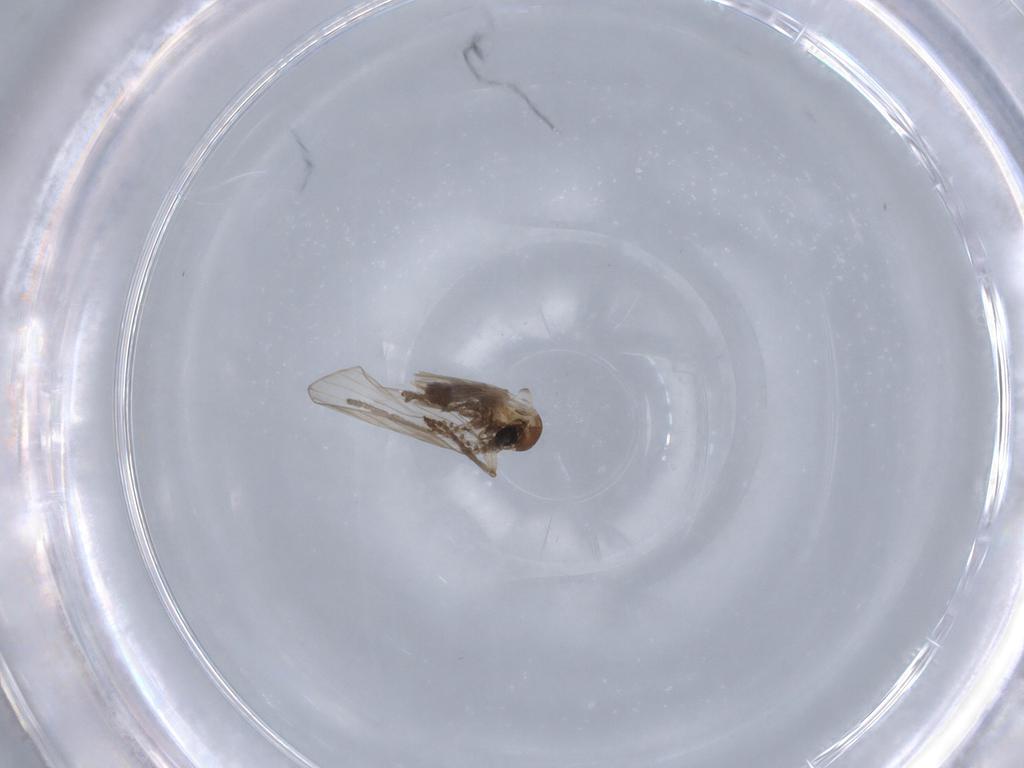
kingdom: Animalia
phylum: Arthropoda
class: Insecta
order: Diptera
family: Psychodidae
